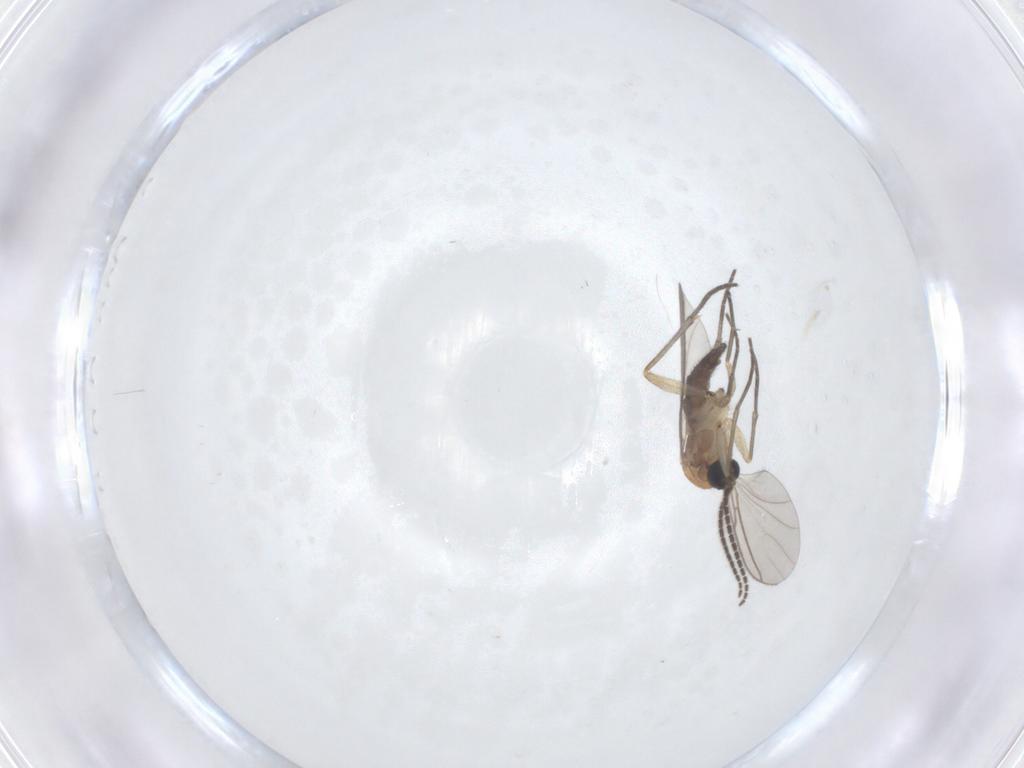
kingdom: Animalia
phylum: Arthropoda
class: Insecta
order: Diptera
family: Sciaridae
